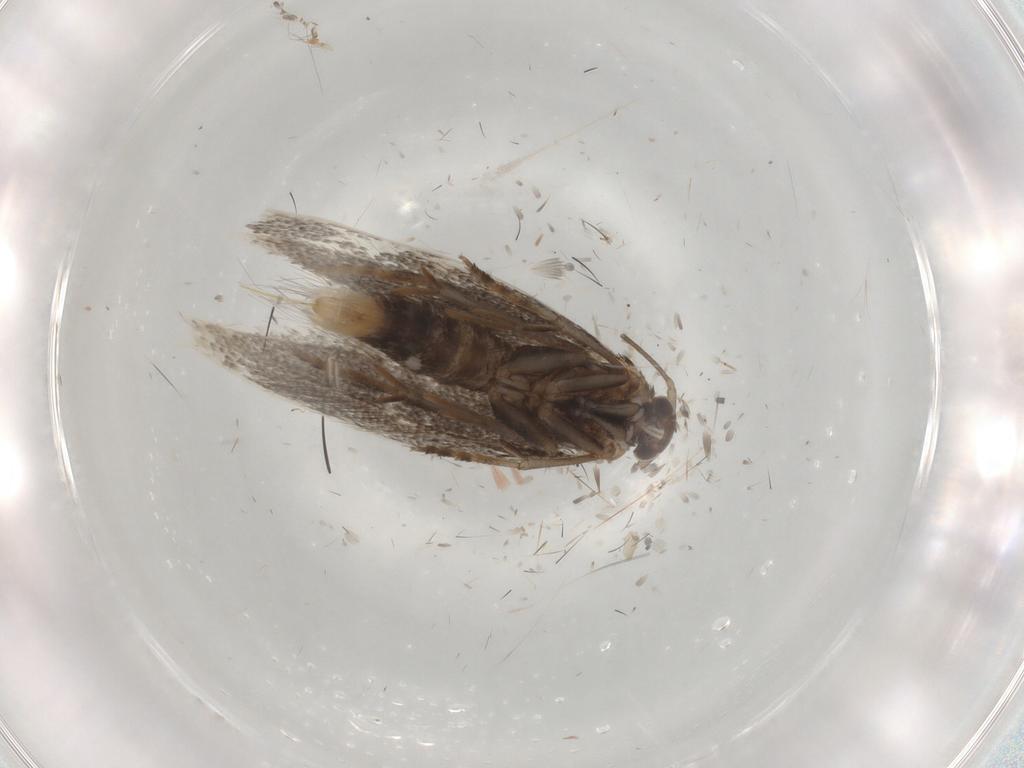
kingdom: Animalia
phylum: Arthropoda
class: Insecta
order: Lepidoptera
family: Elachistidae
